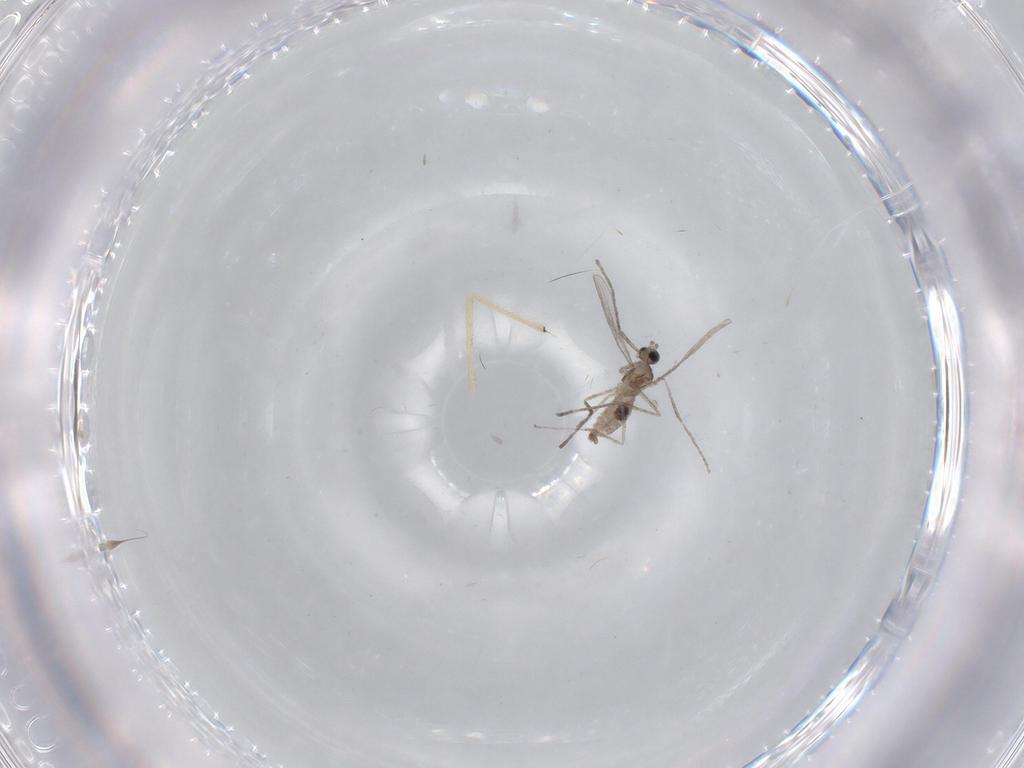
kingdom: Animalia
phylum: Arthropoda
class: Insecta
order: Diptera
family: Chironomidae
